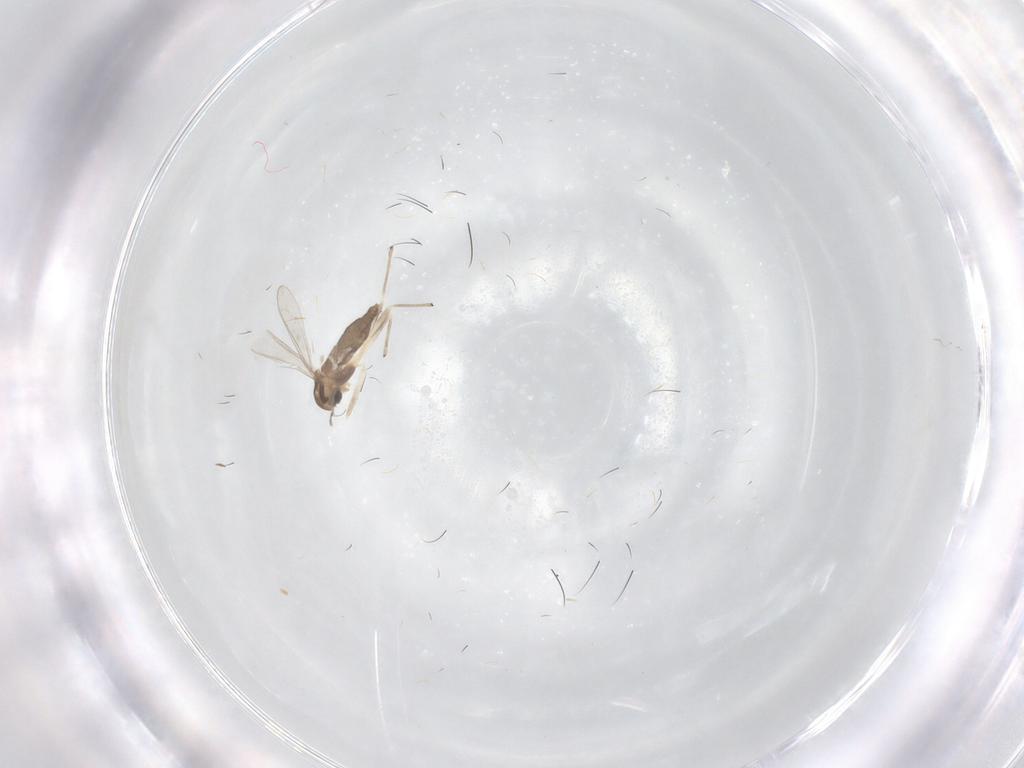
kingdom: Animalia
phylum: Arthropoda
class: Insecta
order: Diptera
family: Chironomidae
